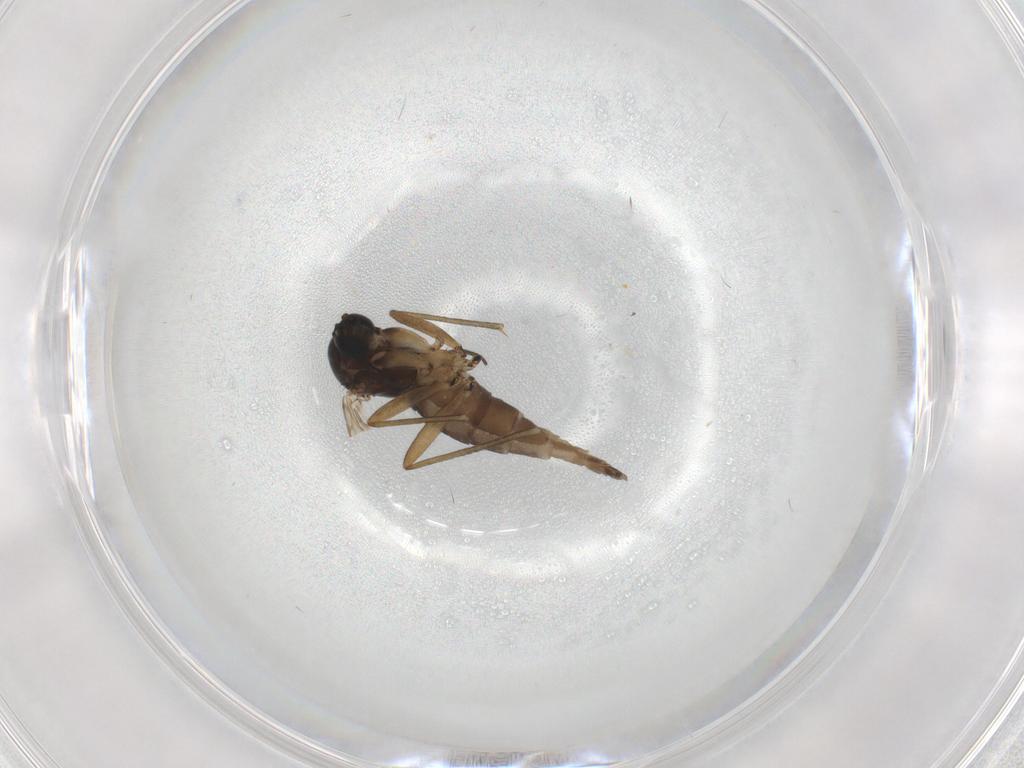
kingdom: Animalia
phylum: Arthropoda
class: Insecta
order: Diptera
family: Sciaridae
